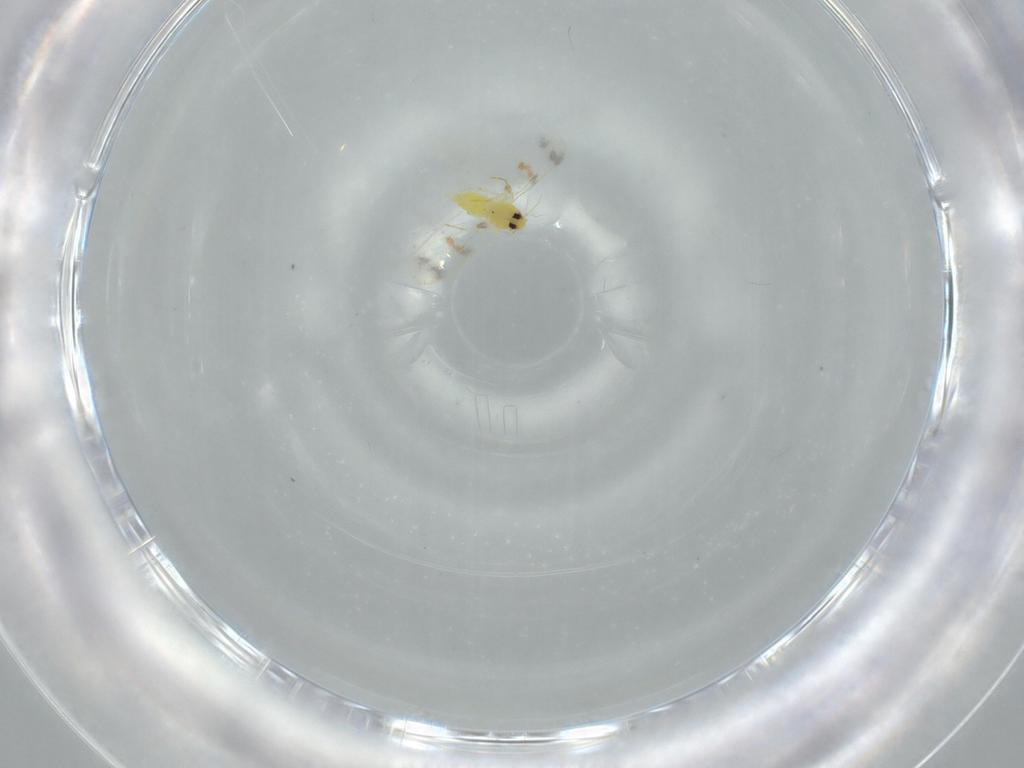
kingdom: Animalia
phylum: Arthropoda
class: Insecta
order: Hemiptera
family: Aleyrodidae
